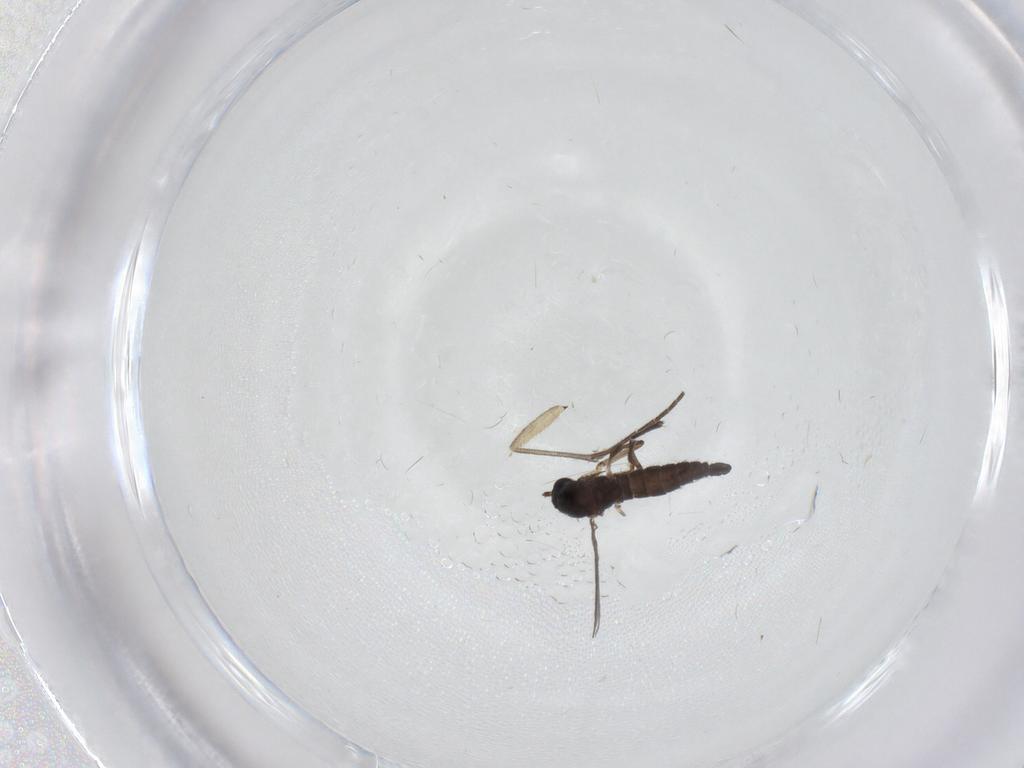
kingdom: Animalia
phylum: Arthropoda
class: Insecta
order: Diptera
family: Sciaridae
